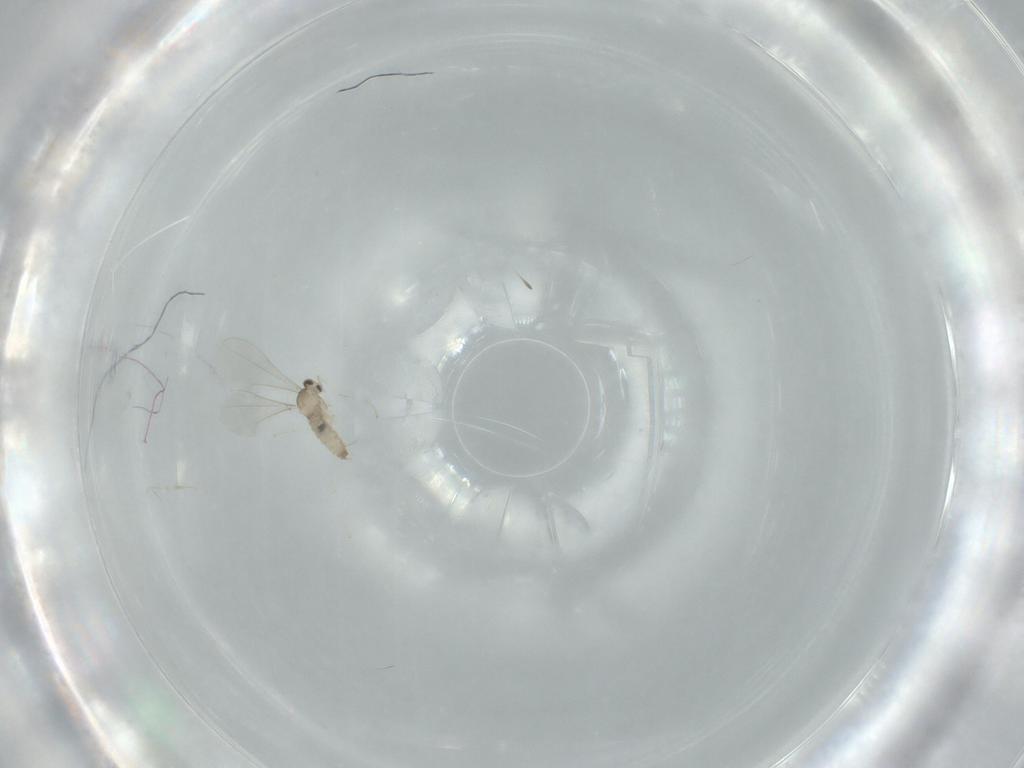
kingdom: Animalia
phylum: Arthropoda
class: Insecta
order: Diptera
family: Cecidomyiidae
